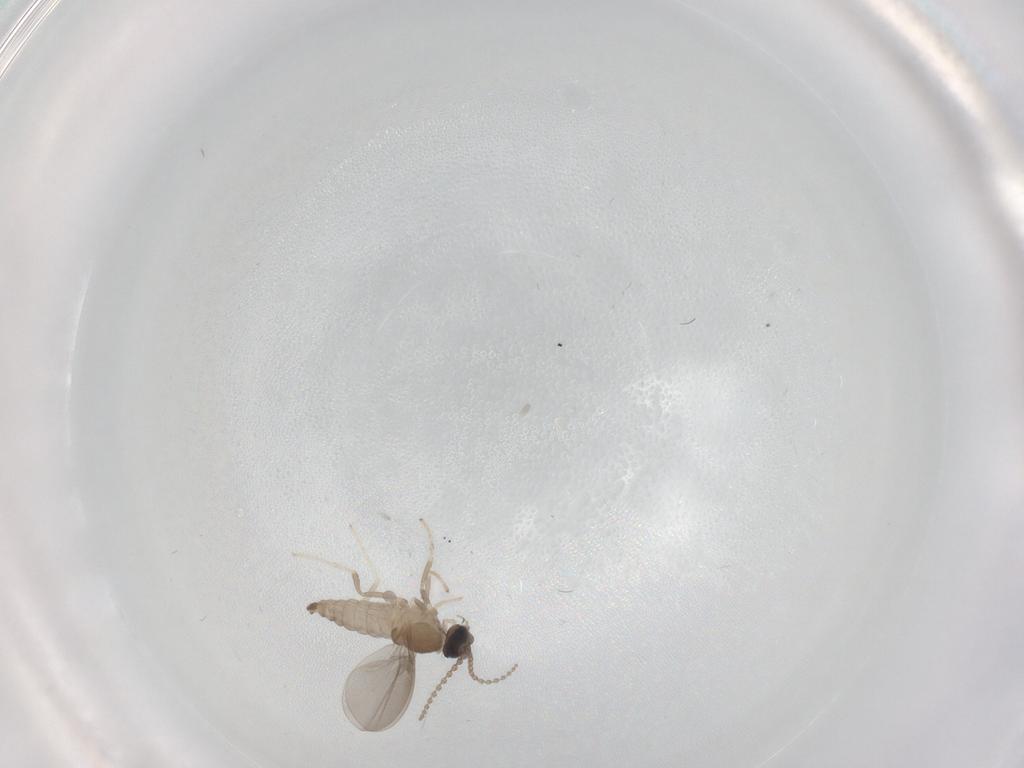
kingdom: Animalia
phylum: Arthropoda
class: Insecta
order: Diptera
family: Cecidomyiidae
